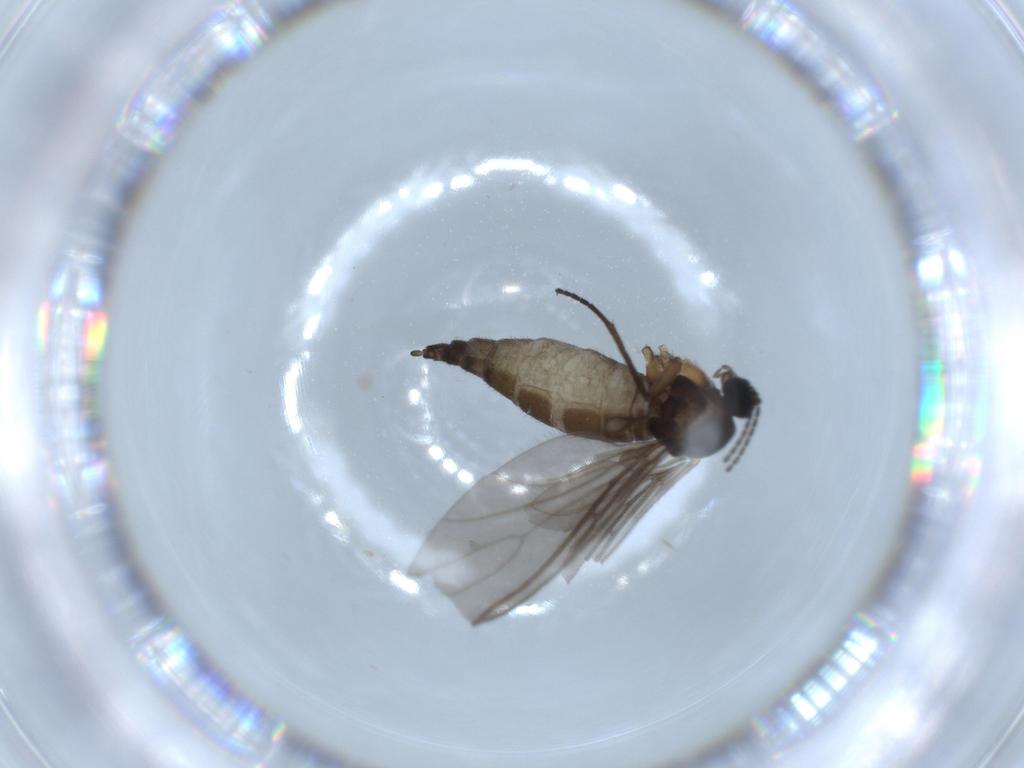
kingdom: Animalia
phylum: Arthropoda
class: Insecta
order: Diptera
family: Sciaridae
